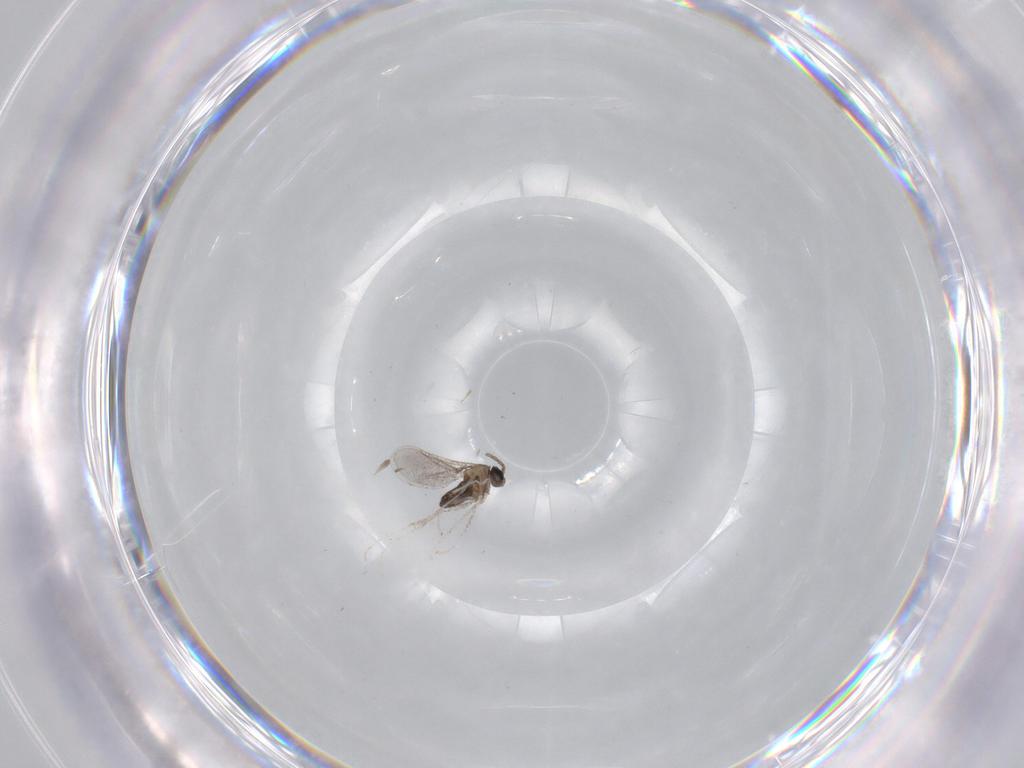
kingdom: Animalia
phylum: Arthropoda
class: Insecta
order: Diptera
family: Cecidomyiidae
